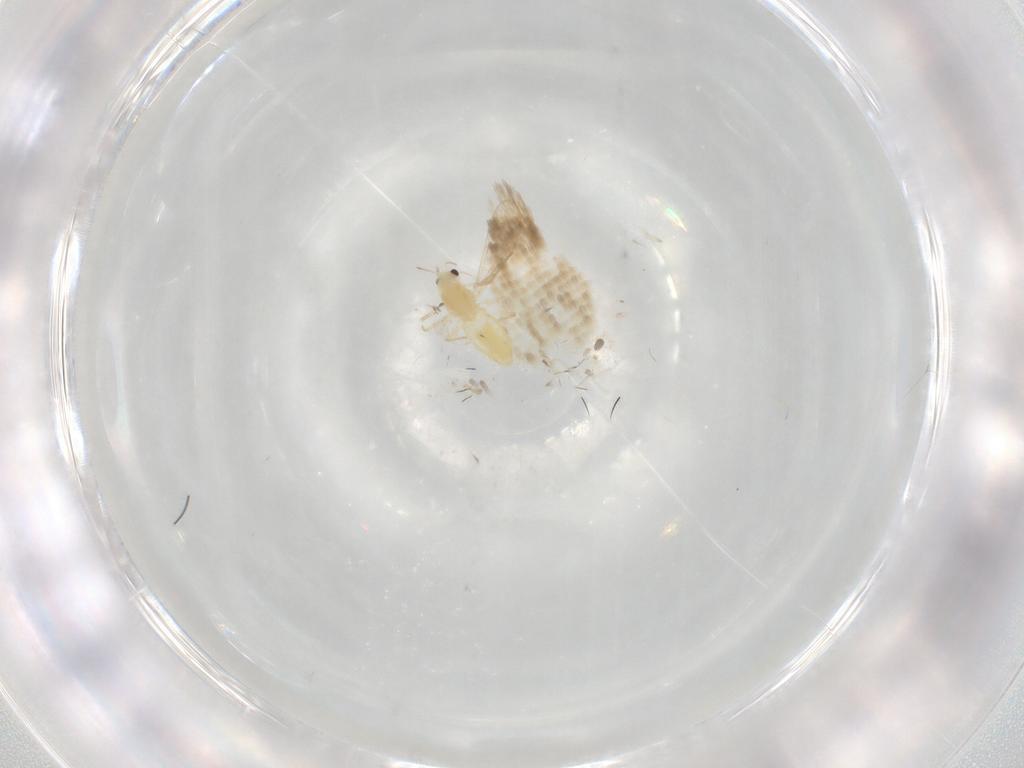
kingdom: Animalia
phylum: Arthropoda
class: Insecta
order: Diptera
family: Chironomidae
